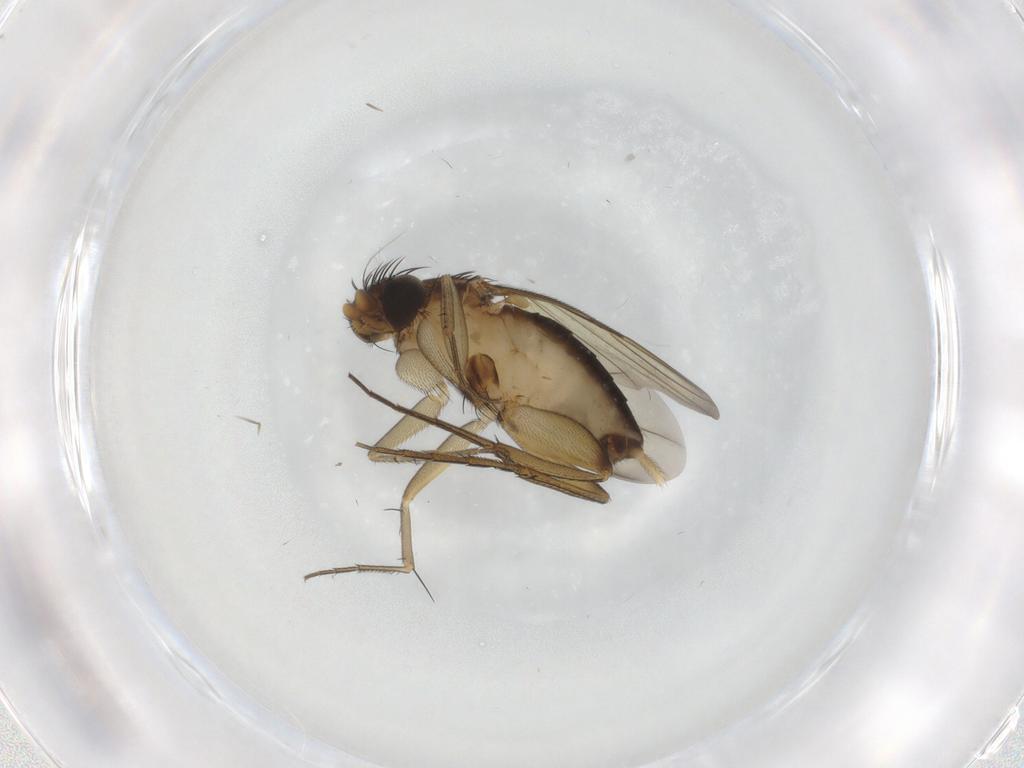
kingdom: Animalia
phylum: Arthropoda
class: Insecta
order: Diptera
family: Phoridae
